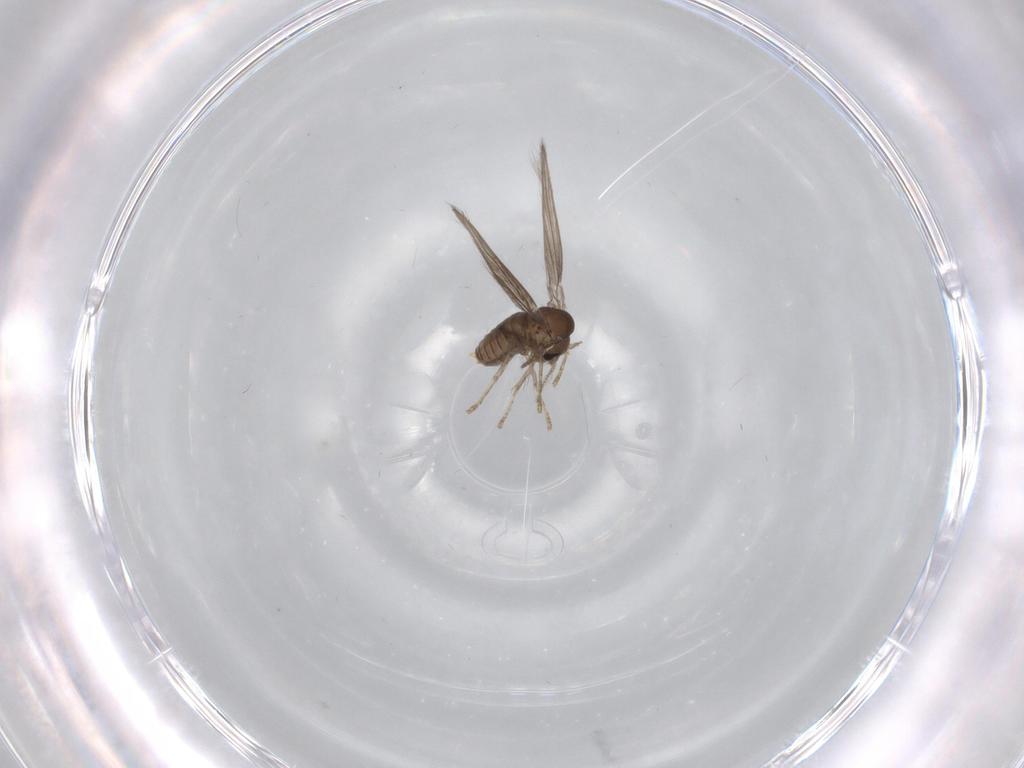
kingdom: Animalia
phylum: Arthropoda
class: Insecta
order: Diptera
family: Psychodidae
